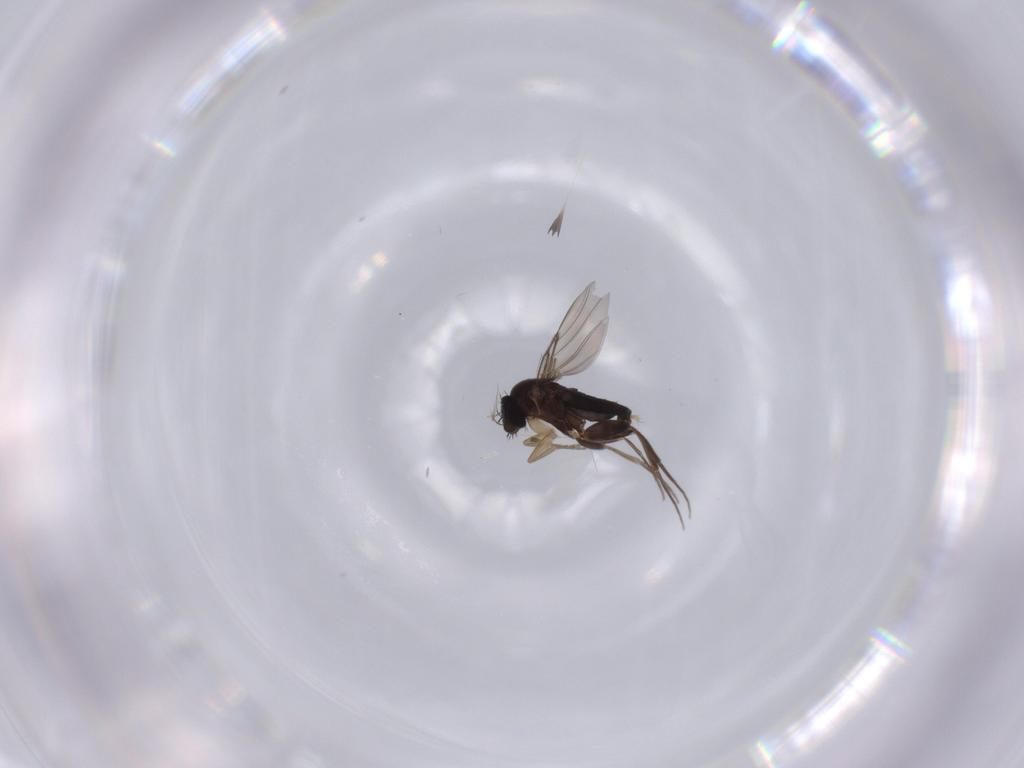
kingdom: Animalia
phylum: Arthropoda
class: Insecta
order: Diptera
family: Phoridae
